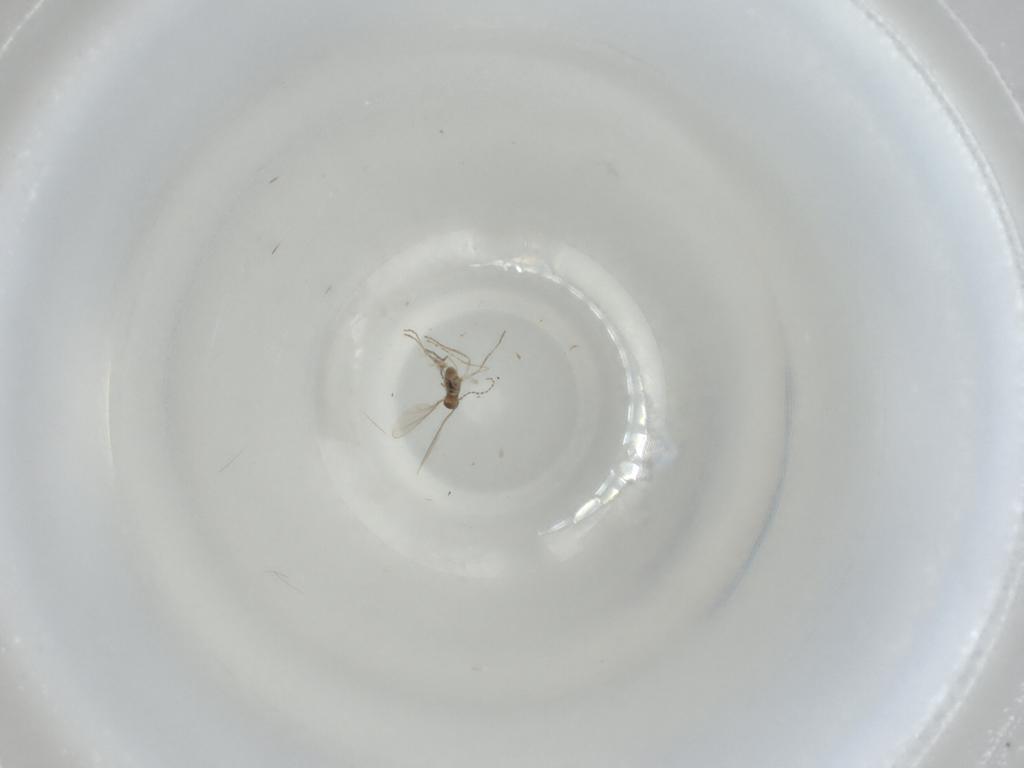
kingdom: Animalia
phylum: Arthropoda
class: Insecta
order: Diptera
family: Cecidomyiidae
